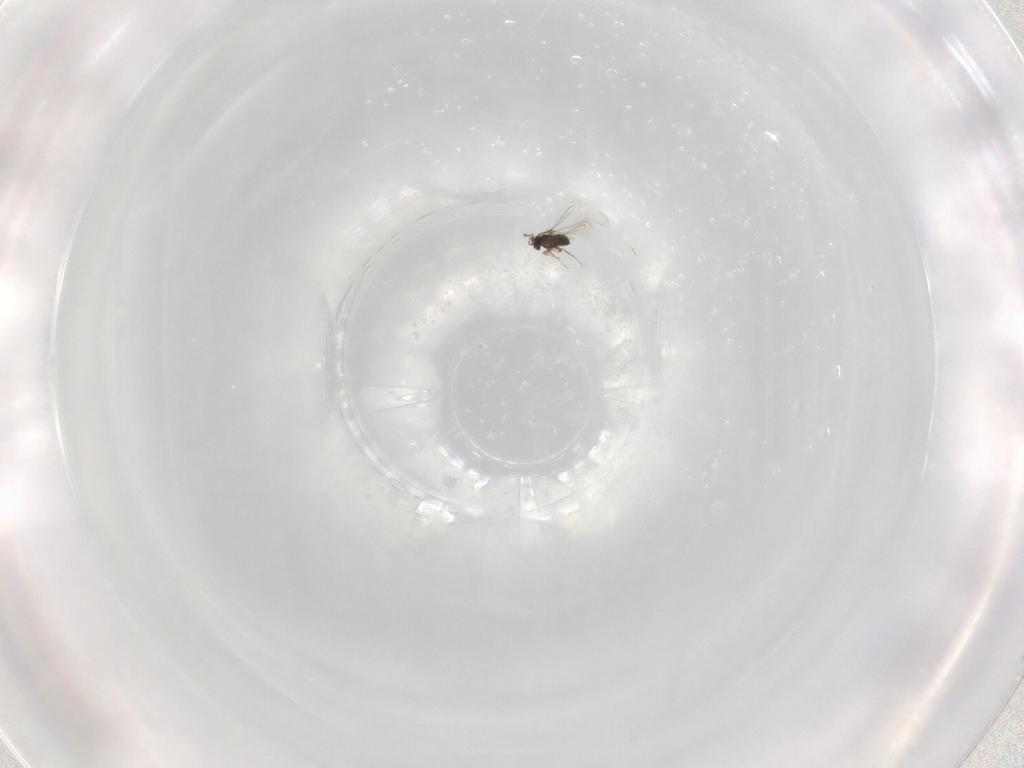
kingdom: Animalia
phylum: Arthropoda
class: Insecta
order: Hymenoptera
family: Mymaridae
